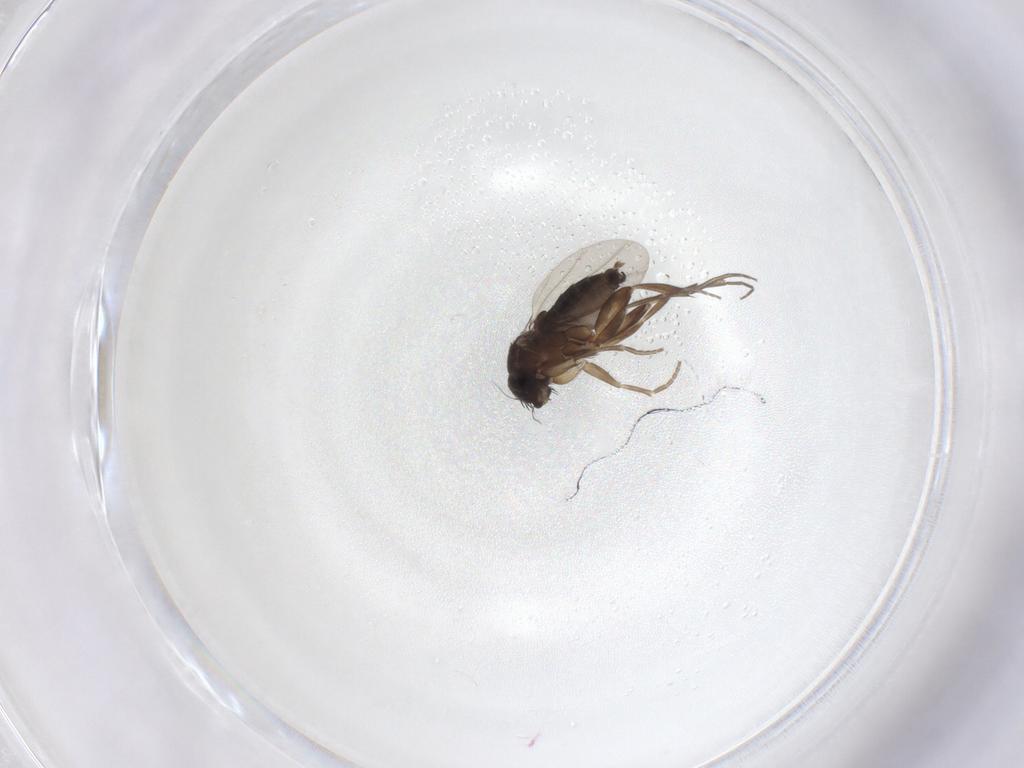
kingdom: Animalia
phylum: Arthropoda
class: Insecta
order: Diptera
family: Phoridae
